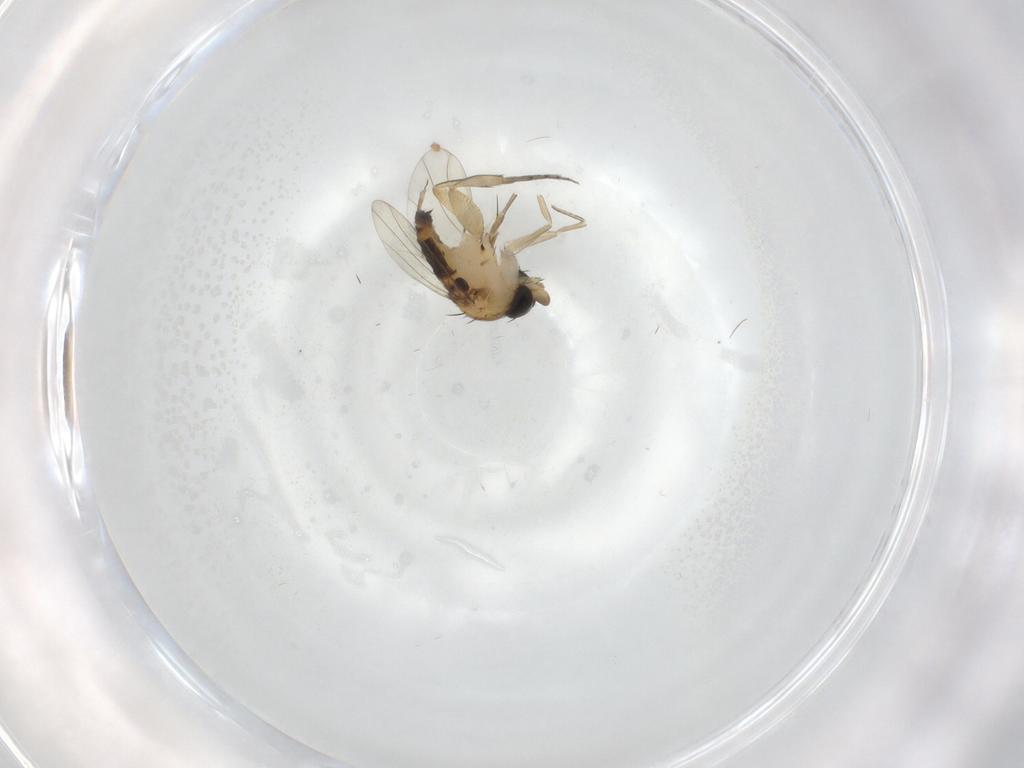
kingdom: Animalia
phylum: Arthropoda
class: Insecta
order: Diptera
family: Phoridae
